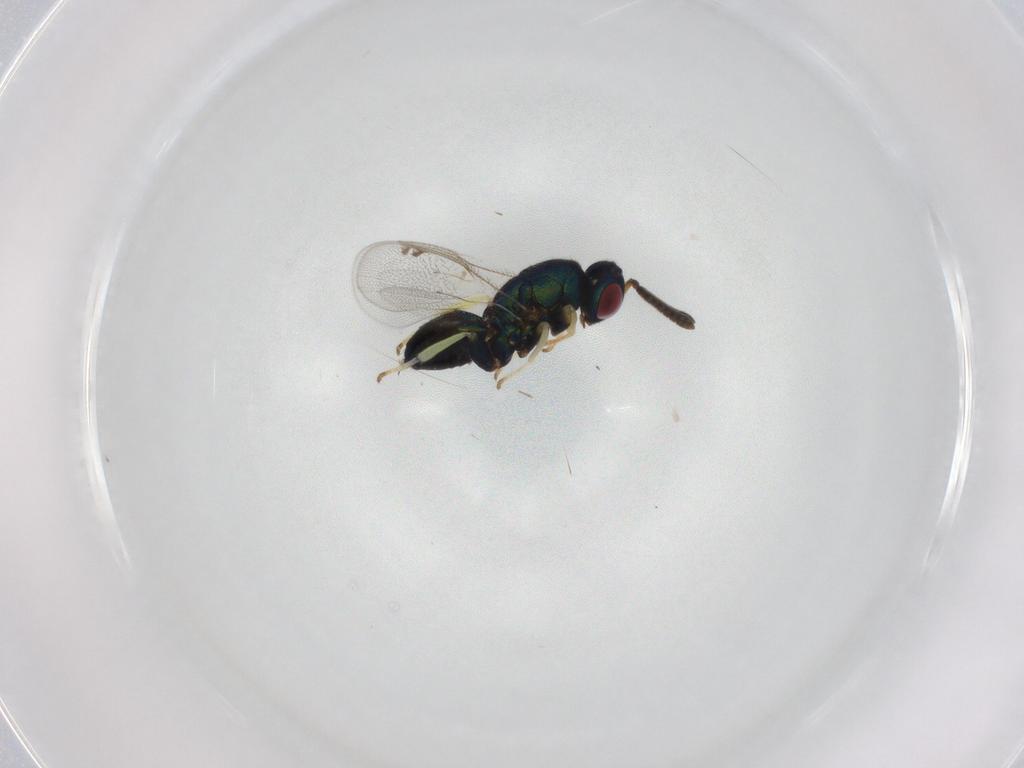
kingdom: Animalia
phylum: Arthropoda
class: Insecta
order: Hymenoptera
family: Torymidae
